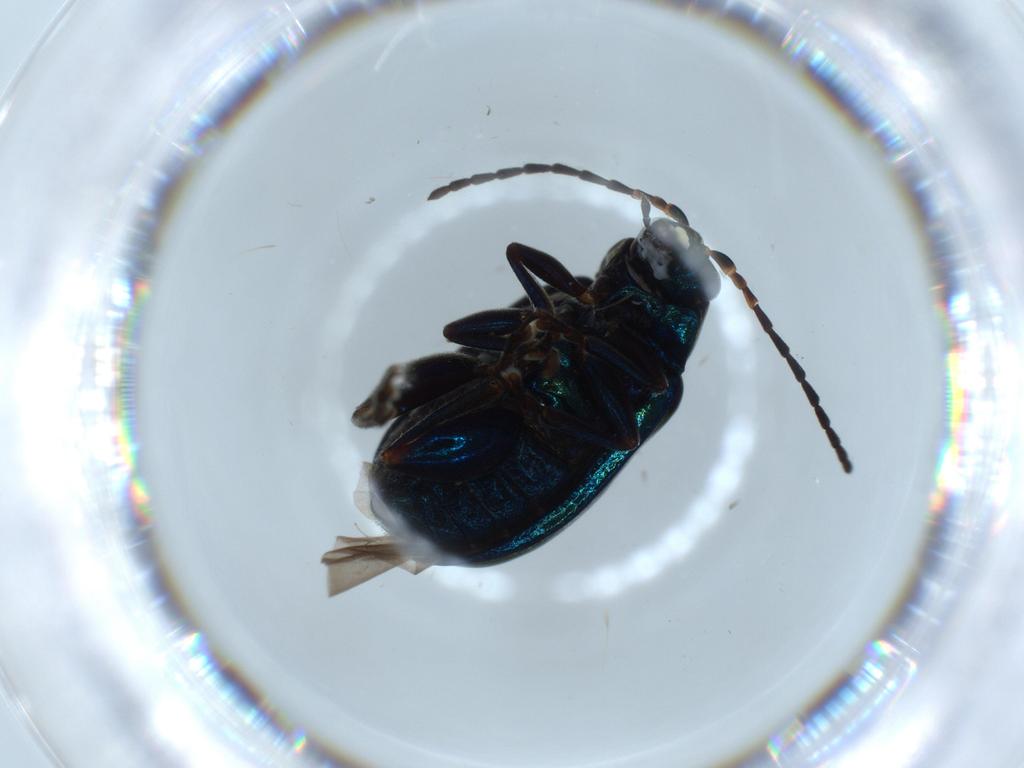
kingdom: Animalia
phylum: Arthropoda
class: Insecta
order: Coleoptera
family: Chrysomelidae
